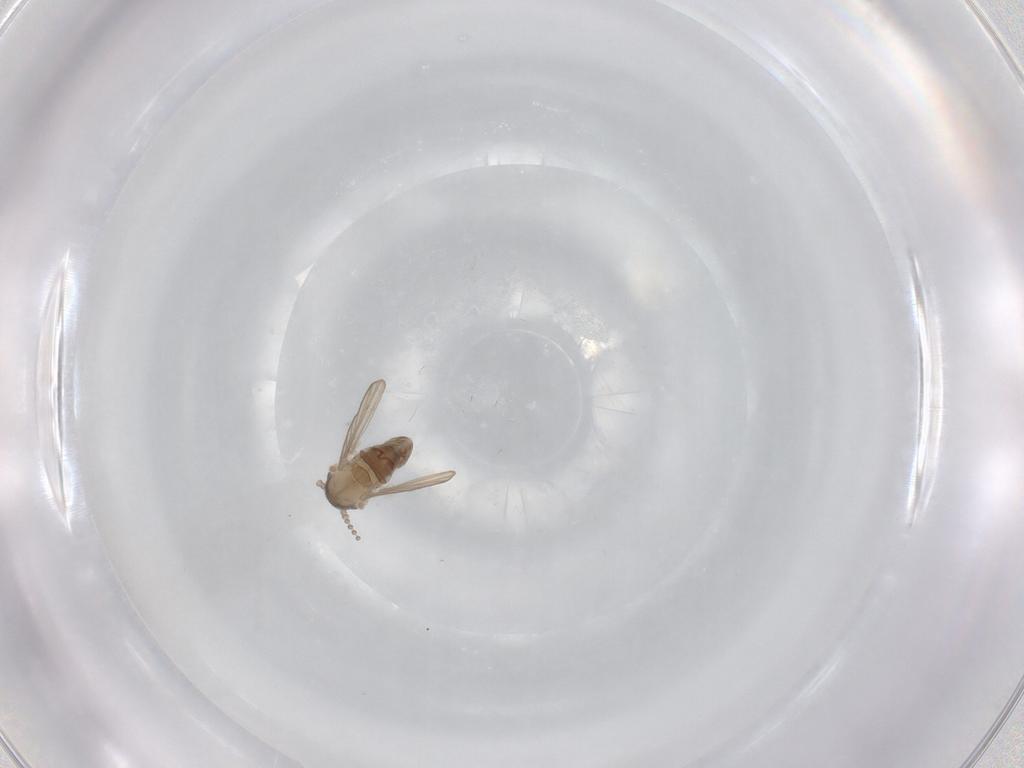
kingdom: Animalia
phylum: Arthropoda
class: Insecta
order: Diptera
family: Psychodidae
